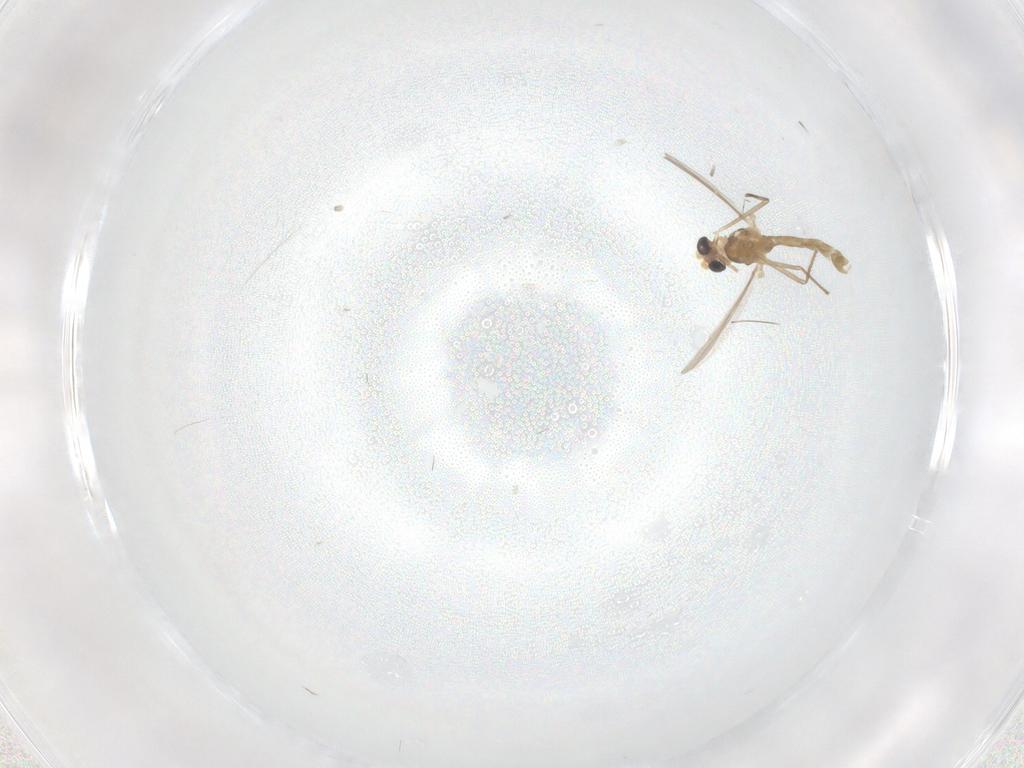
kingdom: Animalia
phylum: Arthropoda
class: Insecta
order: Diptera
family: Chironomidae
